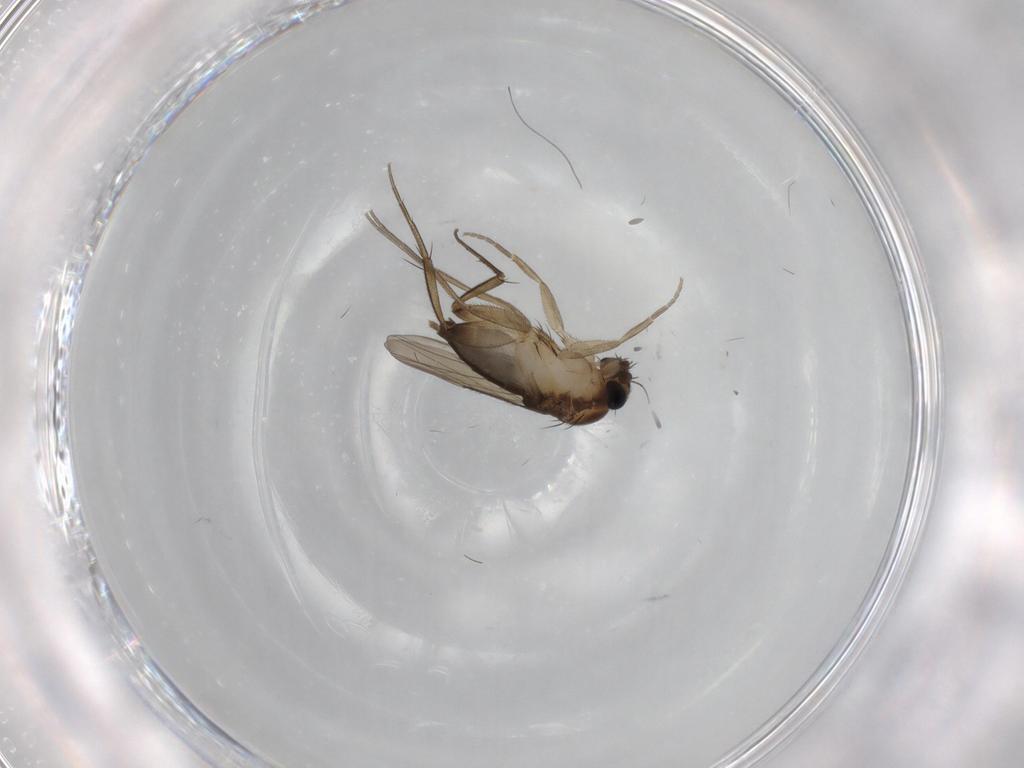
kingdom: Animalia
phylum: Arthropoda
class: Insecta
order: Diptera
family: Phoridae
